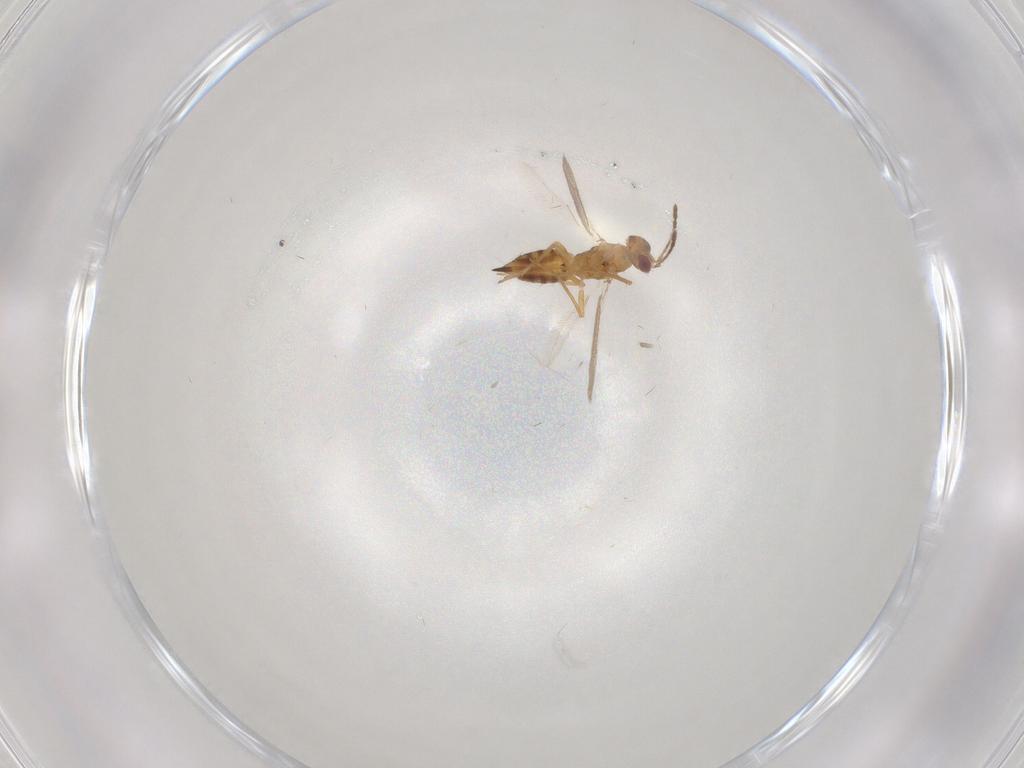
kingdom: Animalia
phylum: Arthropoda
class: Insecta
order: Hymenoptera
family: Eulophidae
